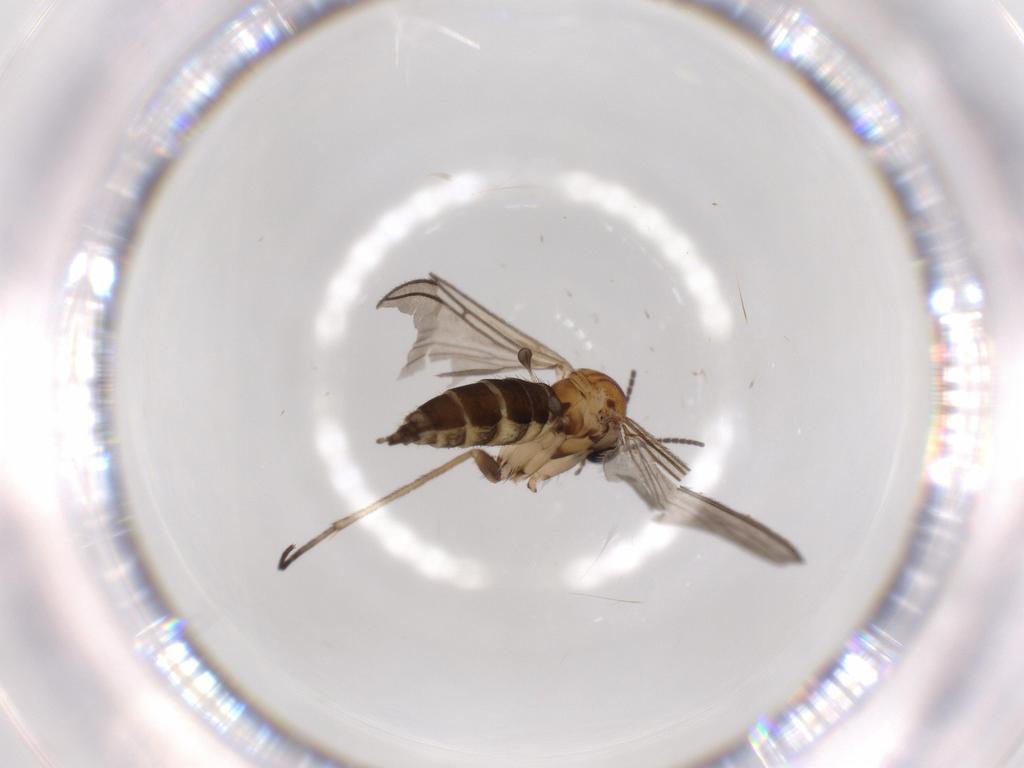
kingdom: Animalia
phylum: Arthropoda
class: Insecta
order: Diptera
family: Sciaridae
